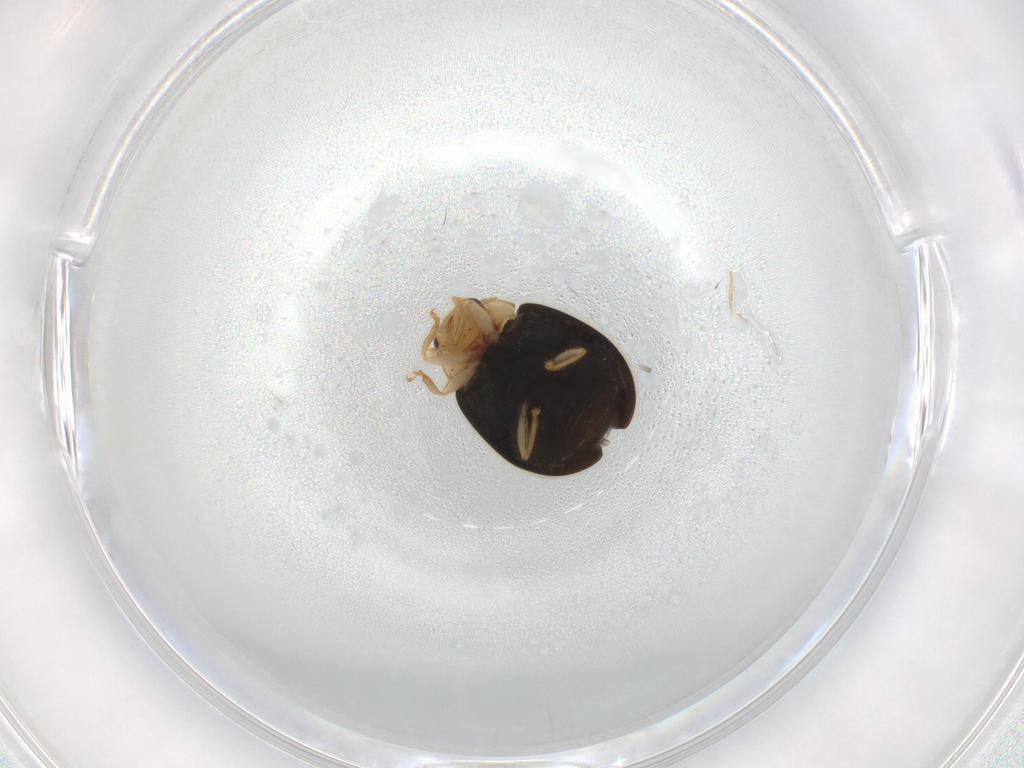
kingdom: Animalia
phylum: Arthropoda
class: Insecta
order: Coleoptera
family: Coccinellidae
